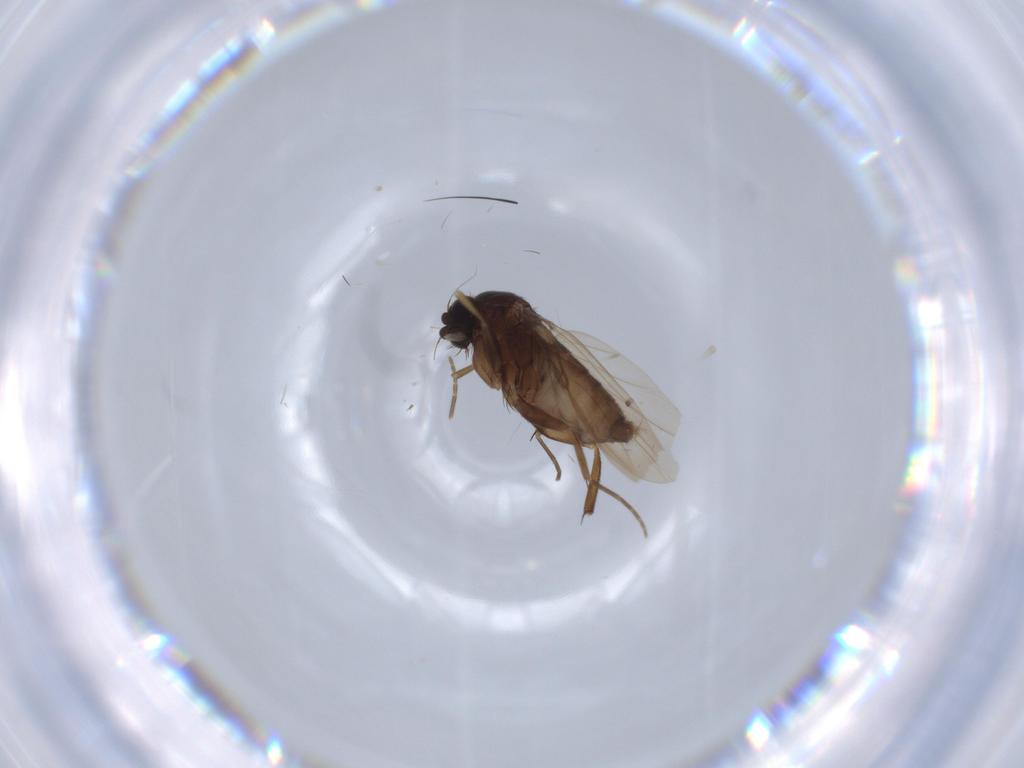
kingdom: Animalia
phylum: Arthropoda
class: Insecta
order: Diptera
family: Phoridae
